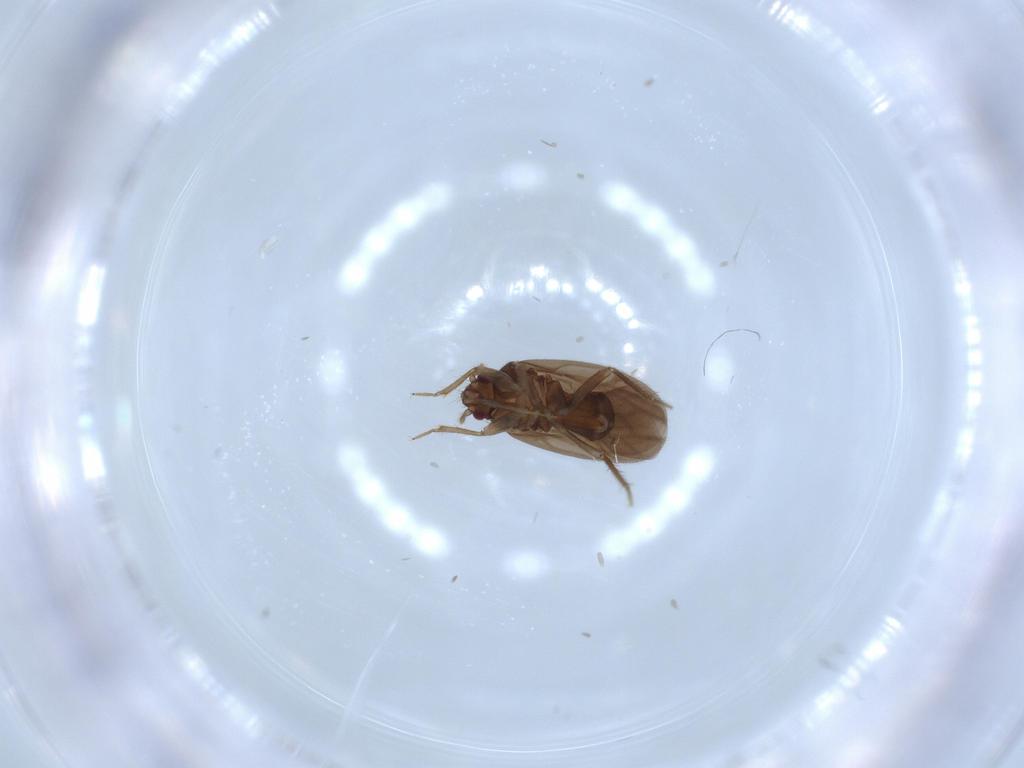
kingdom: Animalia
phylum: Arthropoda
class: Insecta
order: Hemiptera
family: Ceratocombidae
